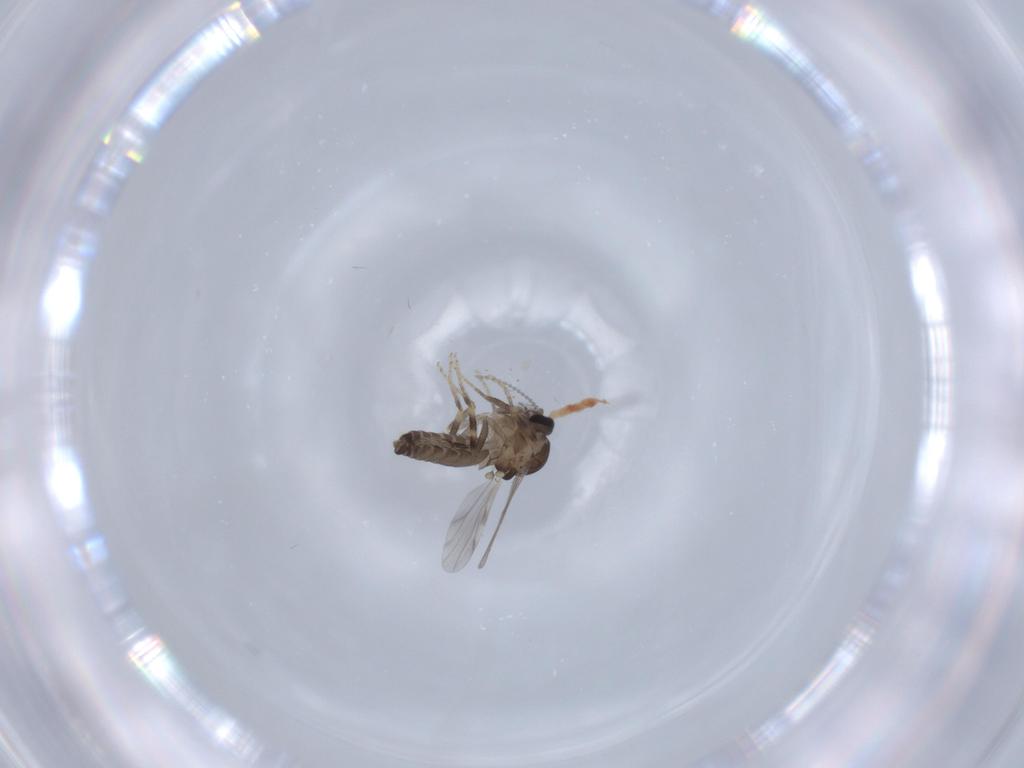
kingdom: Animalia
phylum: Arthropoda
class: Insecta
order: Diptera
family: Ceratopogonidae
